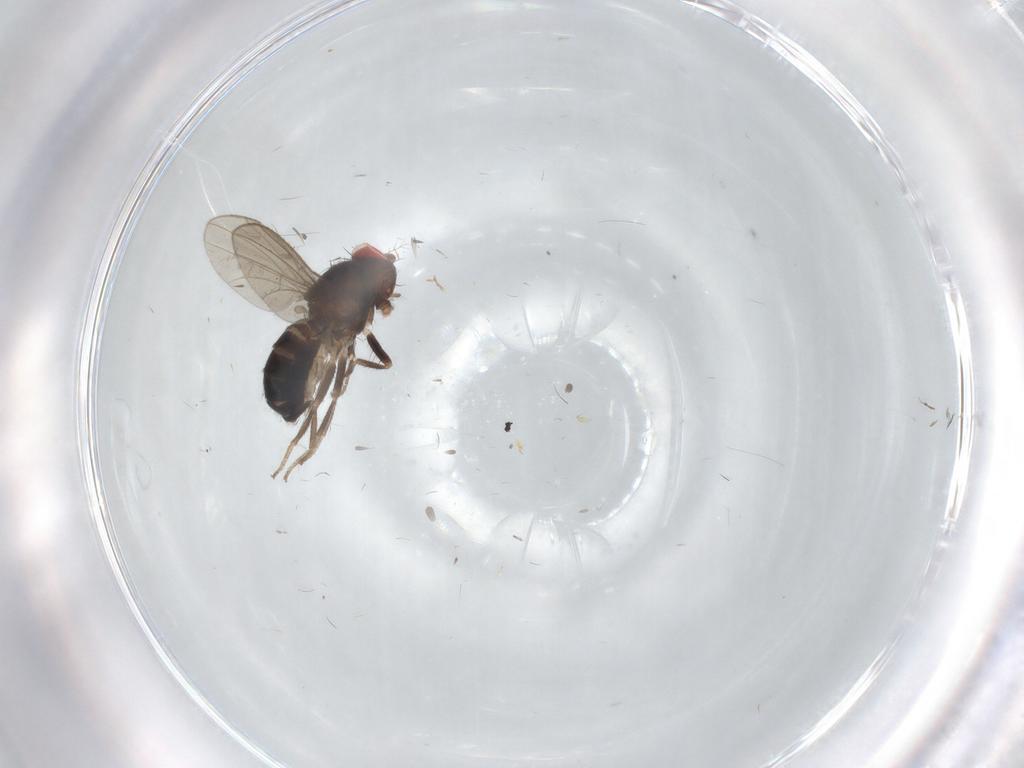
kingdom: Animalia
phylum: Arthropoda
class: Insecta
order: Diptera
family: Drosophilidae
